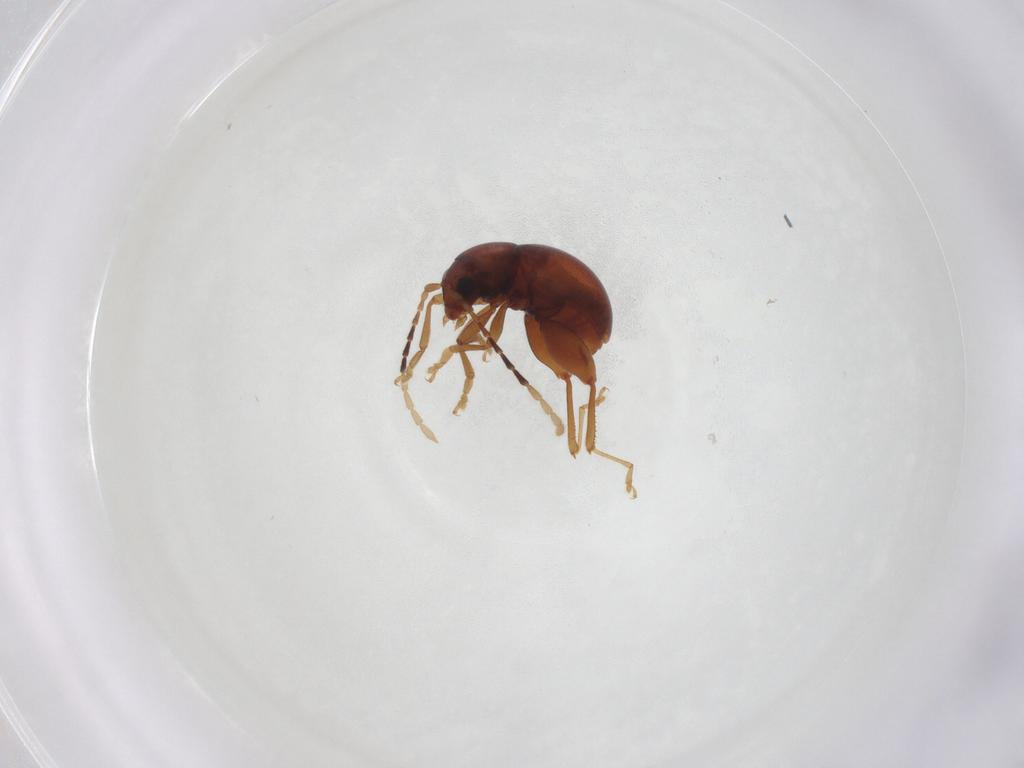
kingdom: Animalia
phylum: Arthropoda
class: Insecta
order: Coleoptera
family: Chrysomelidae
